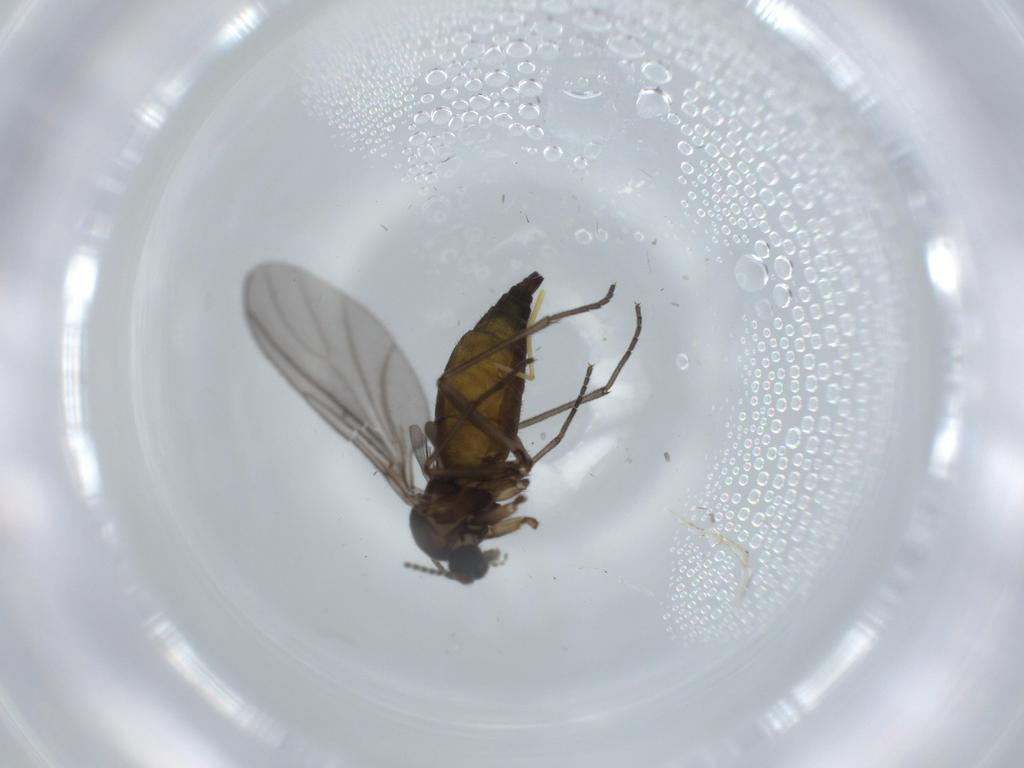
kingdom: Animalia
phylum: Arthropoda
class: Insecta
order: Diptera
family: Sciaridae
